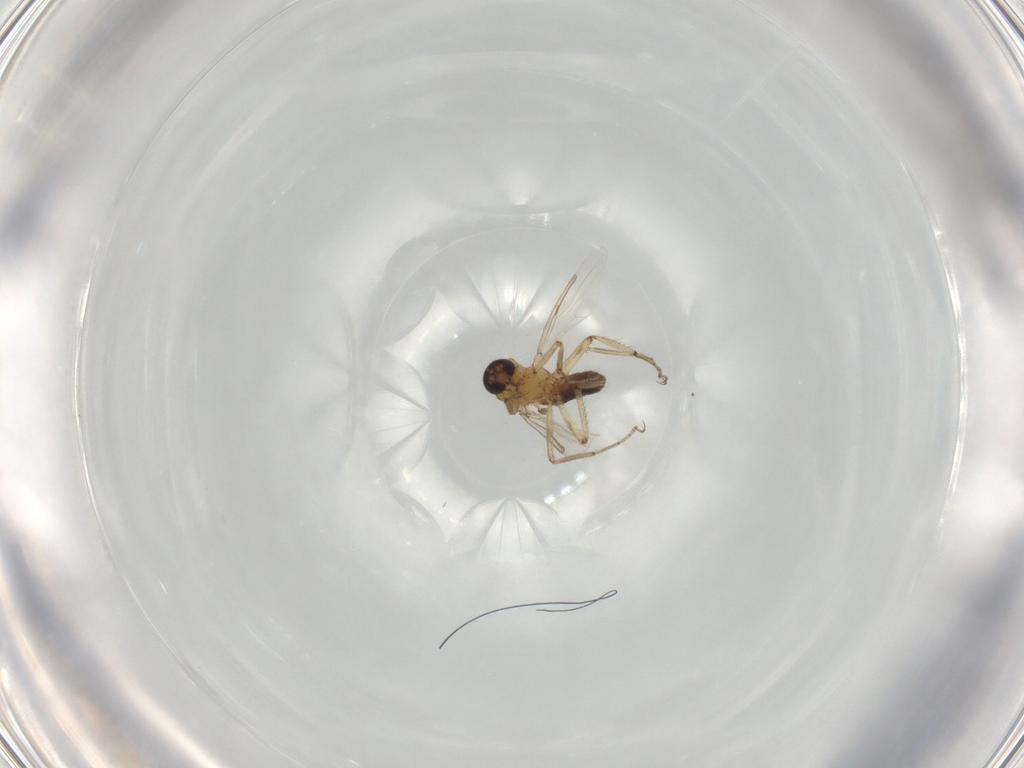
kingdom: Animalia
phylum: Arthropoda
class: Insecta
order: Diptera
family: Ceratopogonidae
